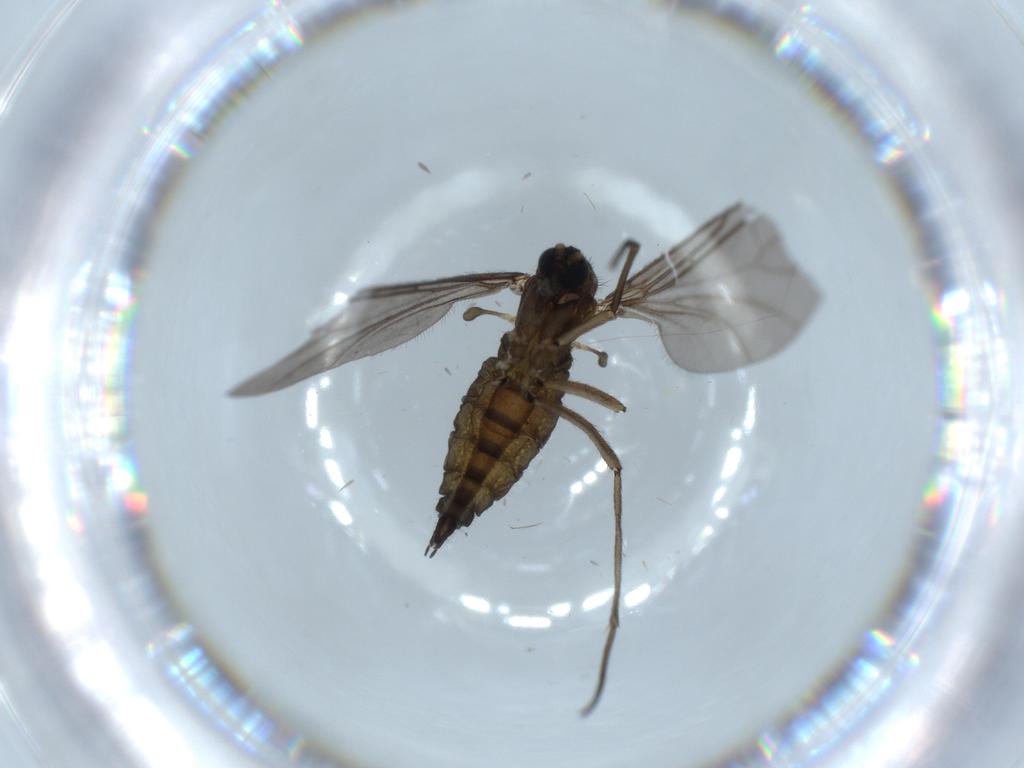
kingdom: Animalia
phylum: Arthropoda
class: Insecta
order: Diptera
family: Sciaridae
